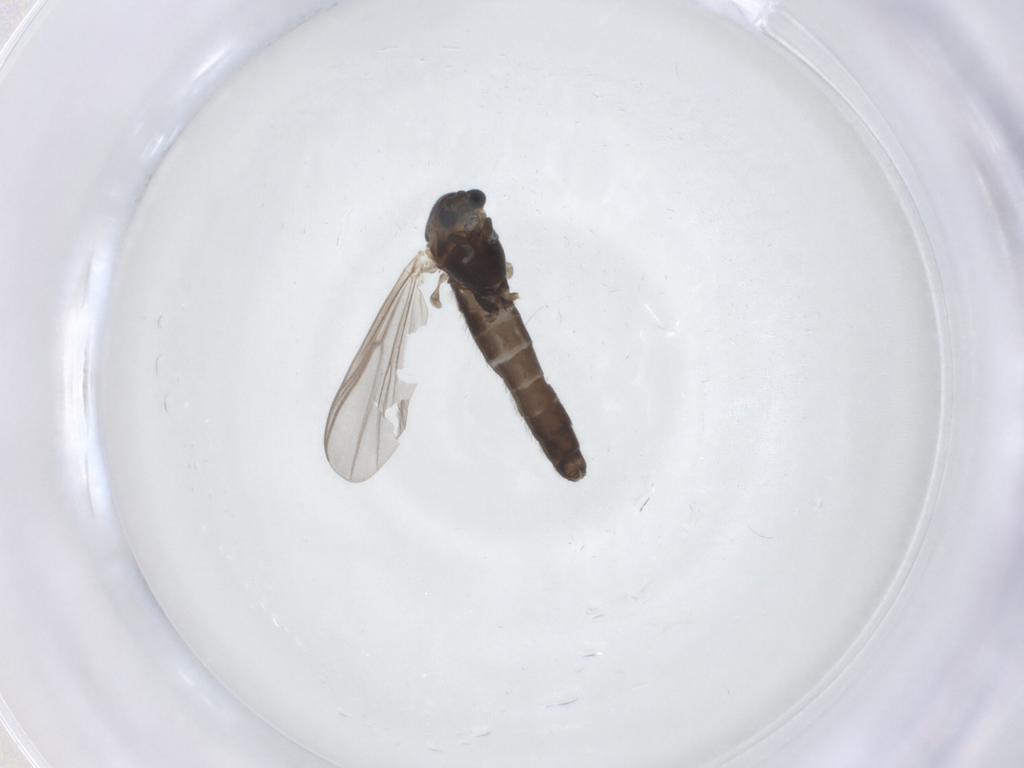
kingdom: Animalia
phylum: Arthropoda
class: Insecta
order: Diptera
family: Chironomidae
